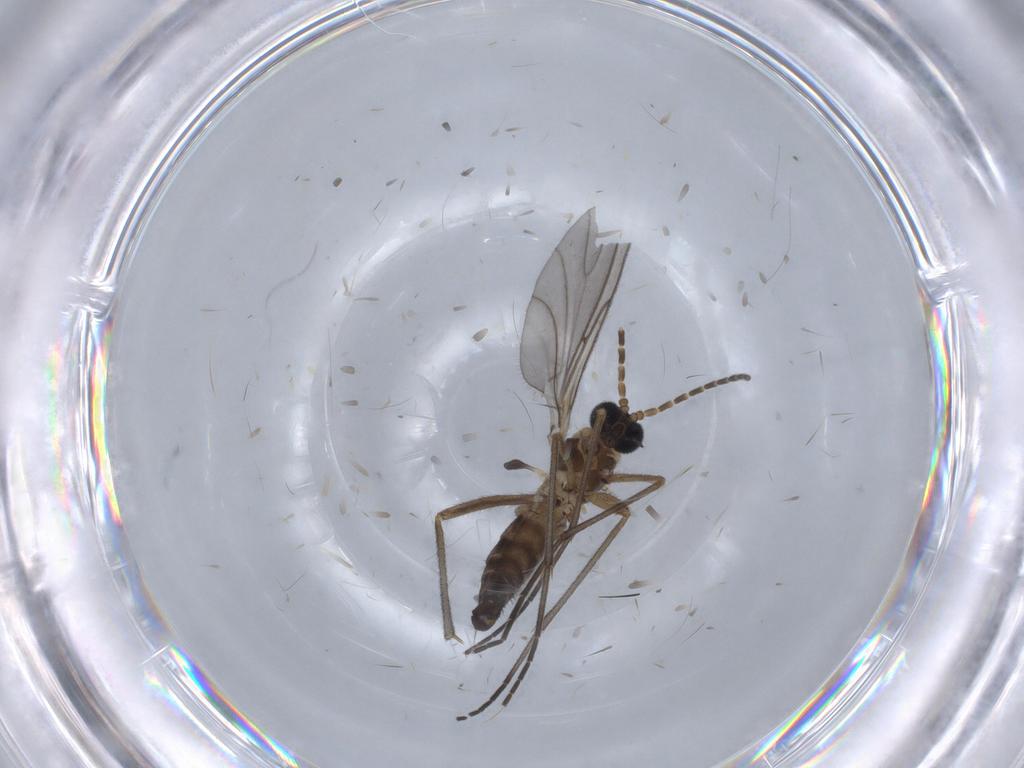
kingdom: Animalia
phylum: Arthropoda
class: Insecta
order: Diptera
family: Sciaridae
